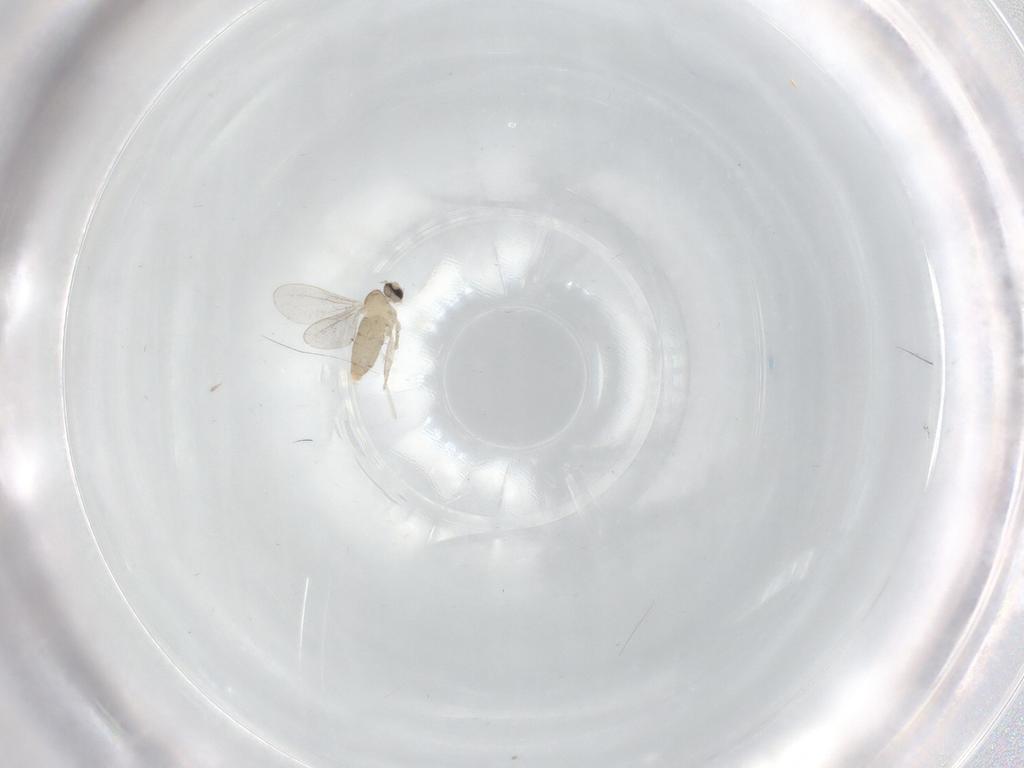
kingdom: Animalia
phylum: Arthropoda
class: Insecta
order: Diptera
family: Cecidomyiidae
